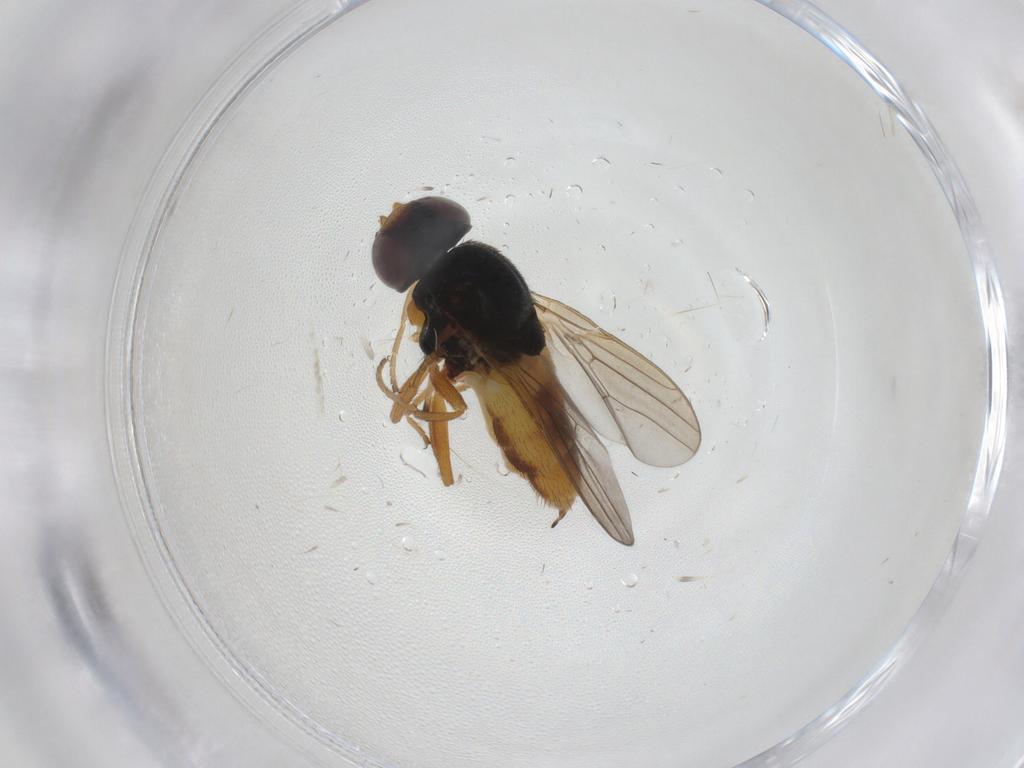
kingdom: Animalia
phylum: Arthropoda
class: Insecta
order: Diptera
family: Chloropidae
